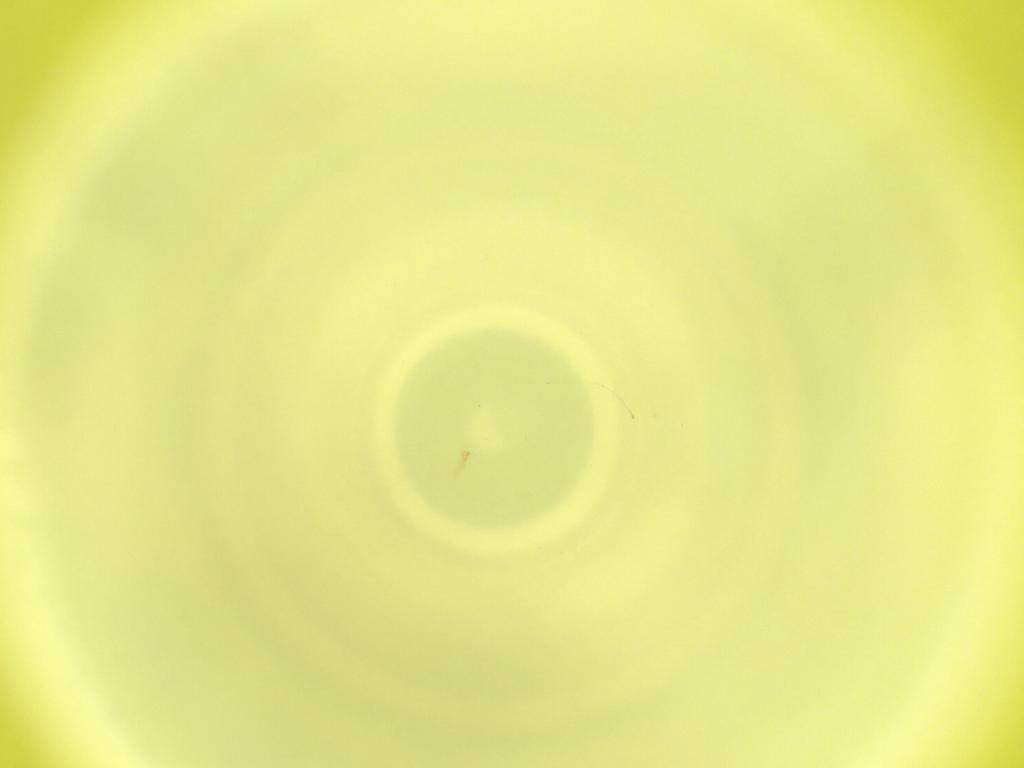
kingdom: Animalia
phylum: Arthropoda
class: Insecta
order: Diptera
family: Cecidomyiidae
